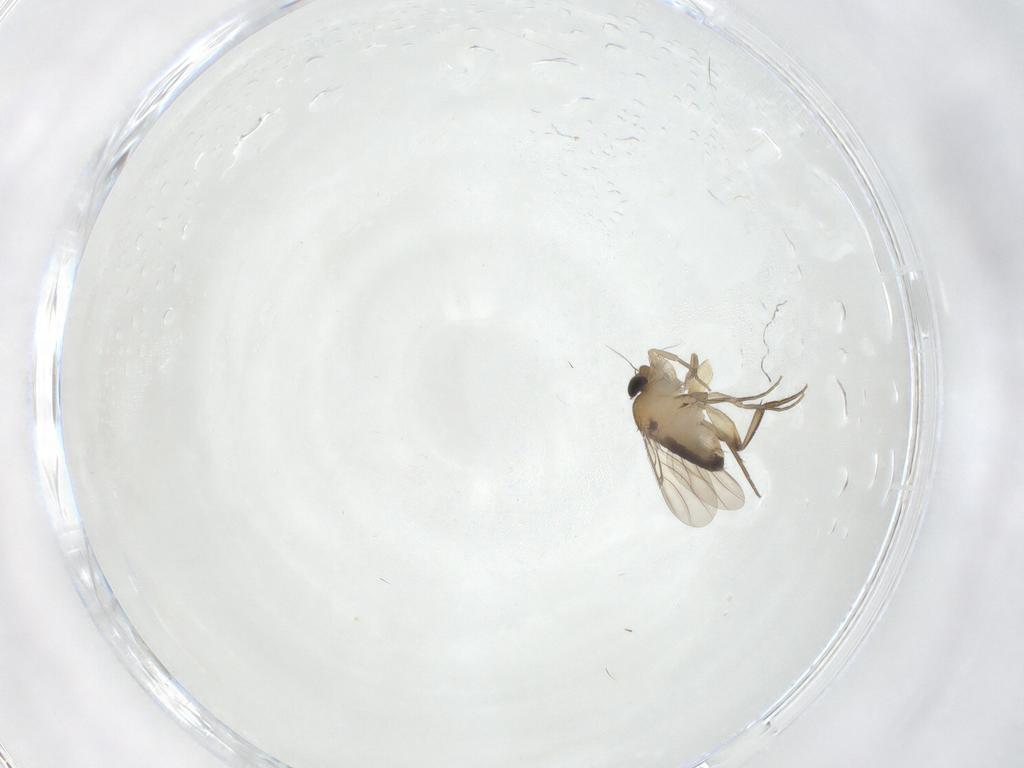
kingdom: Animalia
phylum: Arthropoda
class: Insecta
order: Diptera
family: Phoridae
